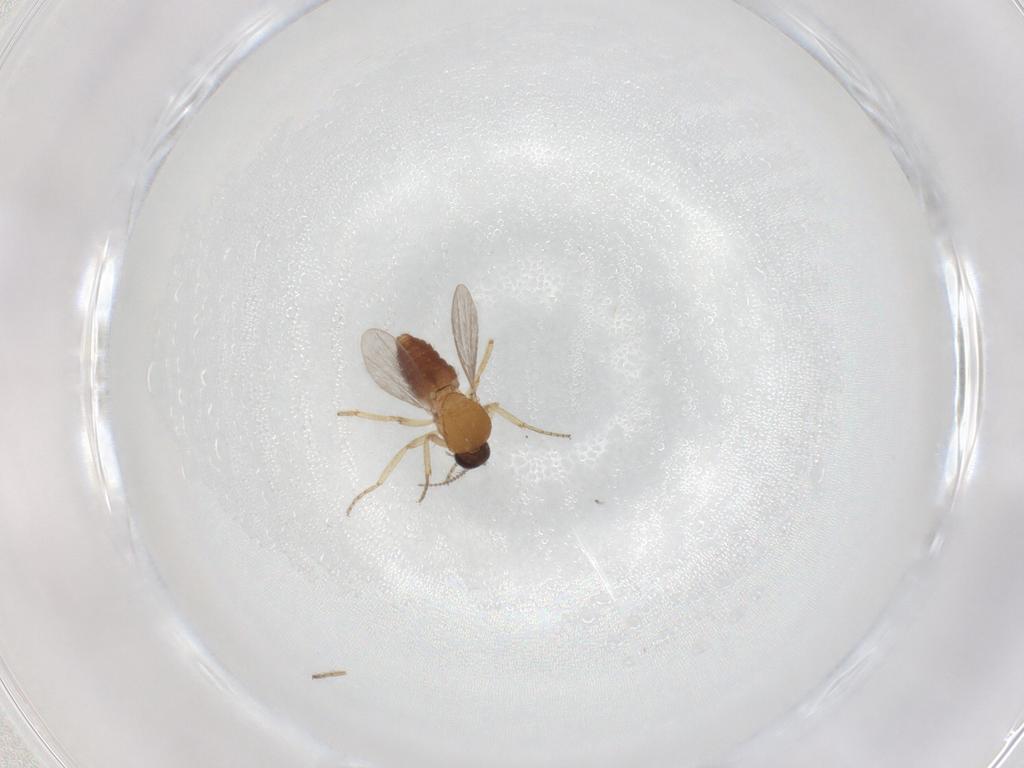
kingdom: Animalia
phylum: Arthropoda
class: Insecta
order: Diptera
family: Ceratopogonidae
